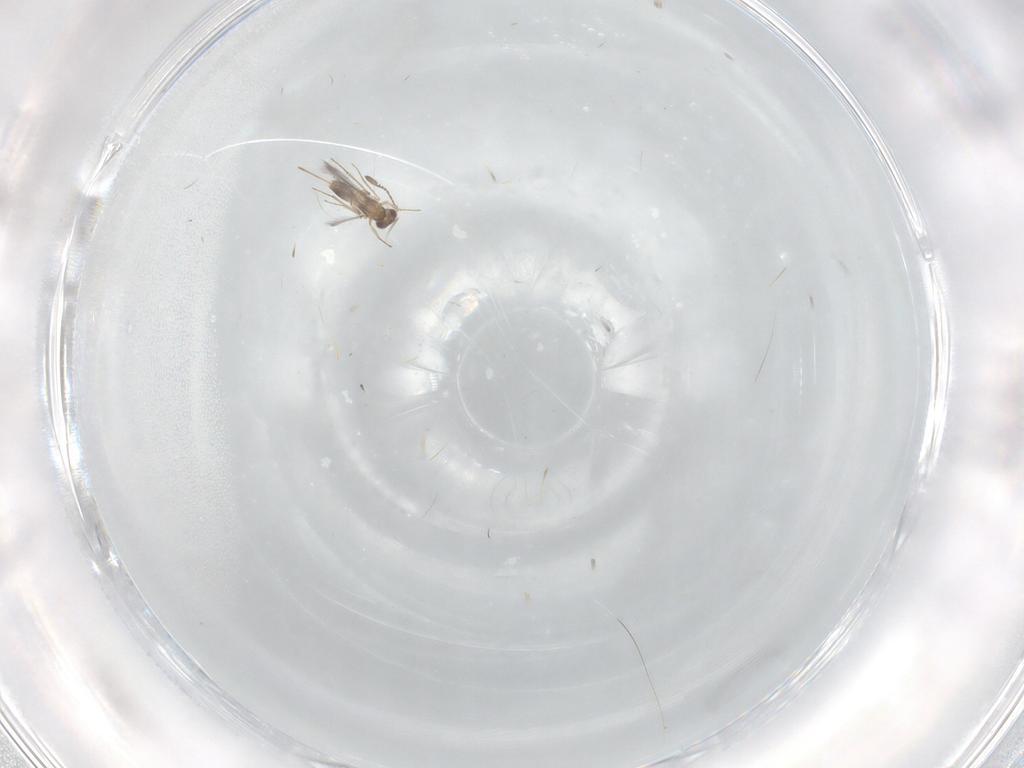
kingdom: Animalia
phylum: Arthropoda
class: Insecta
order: Hymenoptera
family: Mymaridae
